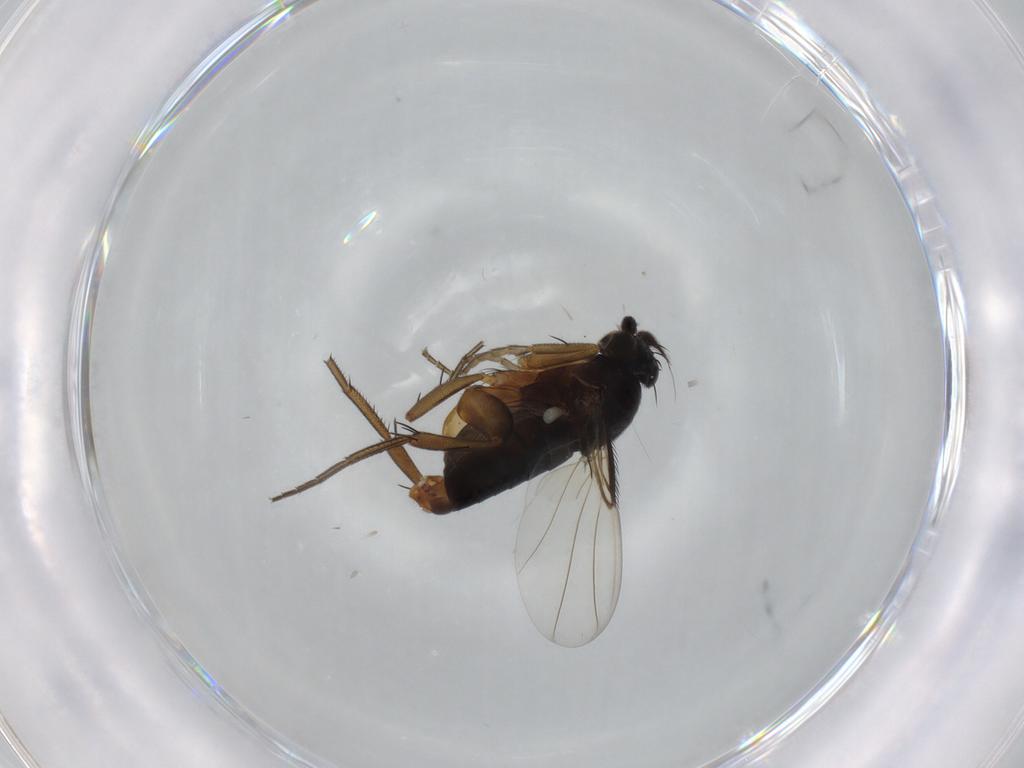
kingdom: Animalia
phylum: Arthropoda
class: Insecta
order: Diptera
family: Phoridae
